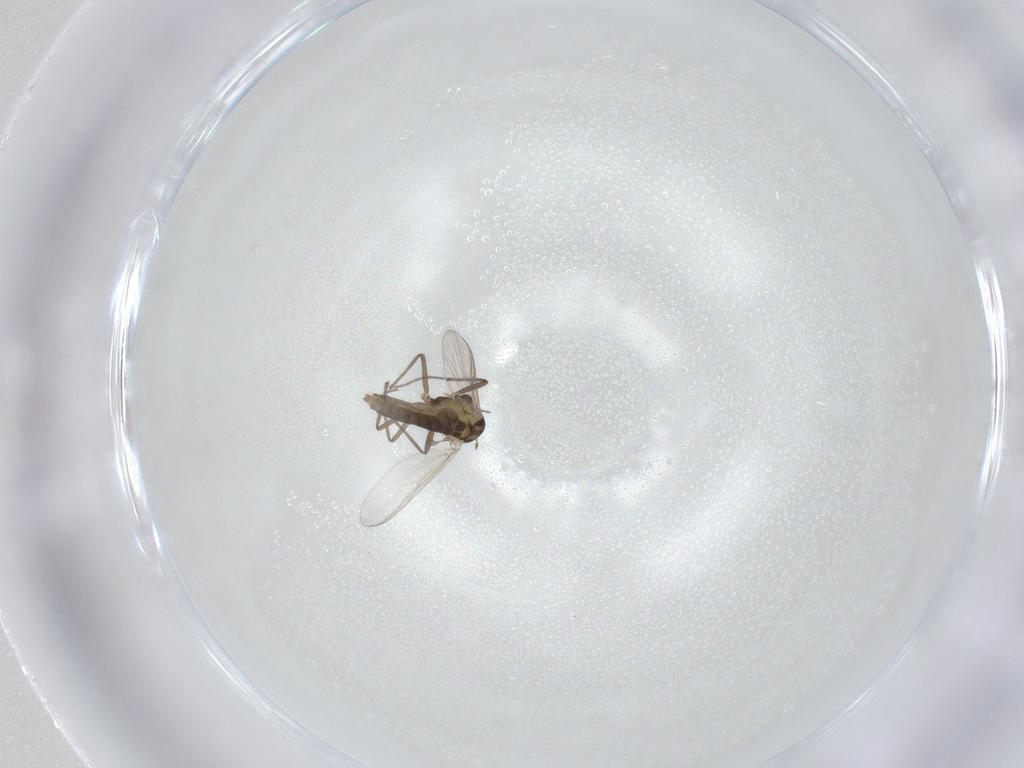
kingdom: Animalia
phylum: Arthropoda
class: Insecta
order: Diptera
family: Chironomidae
